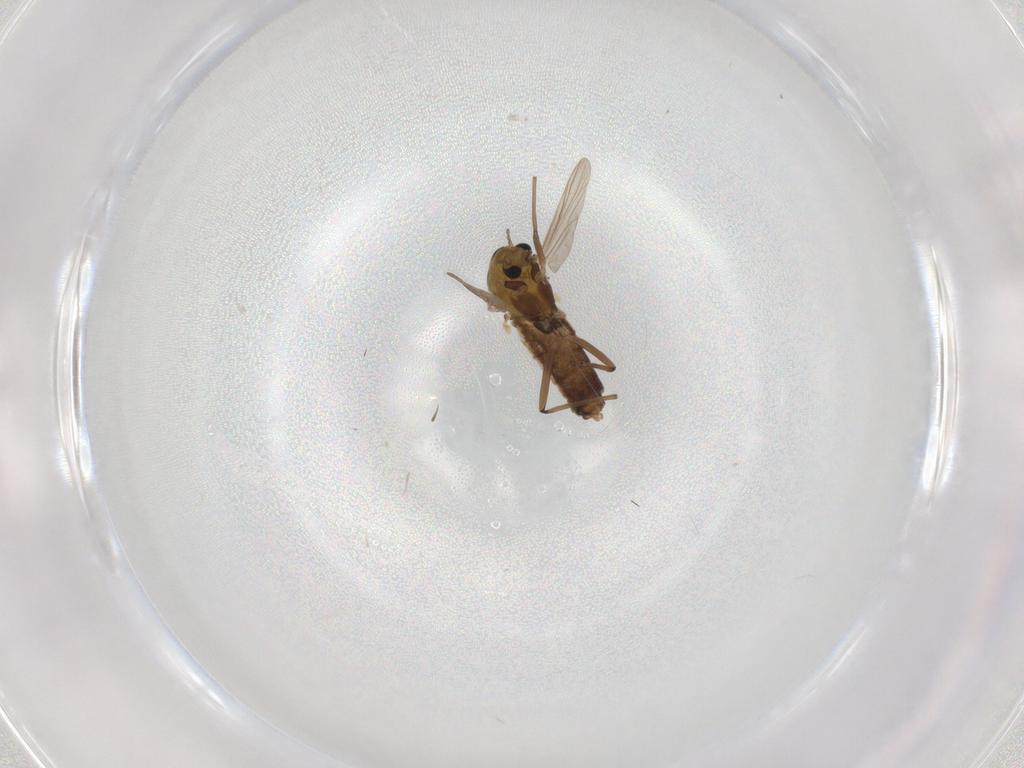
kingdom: Animalia
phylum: Arthropoda
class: Insecta
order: Diptera
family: Chironomidae
